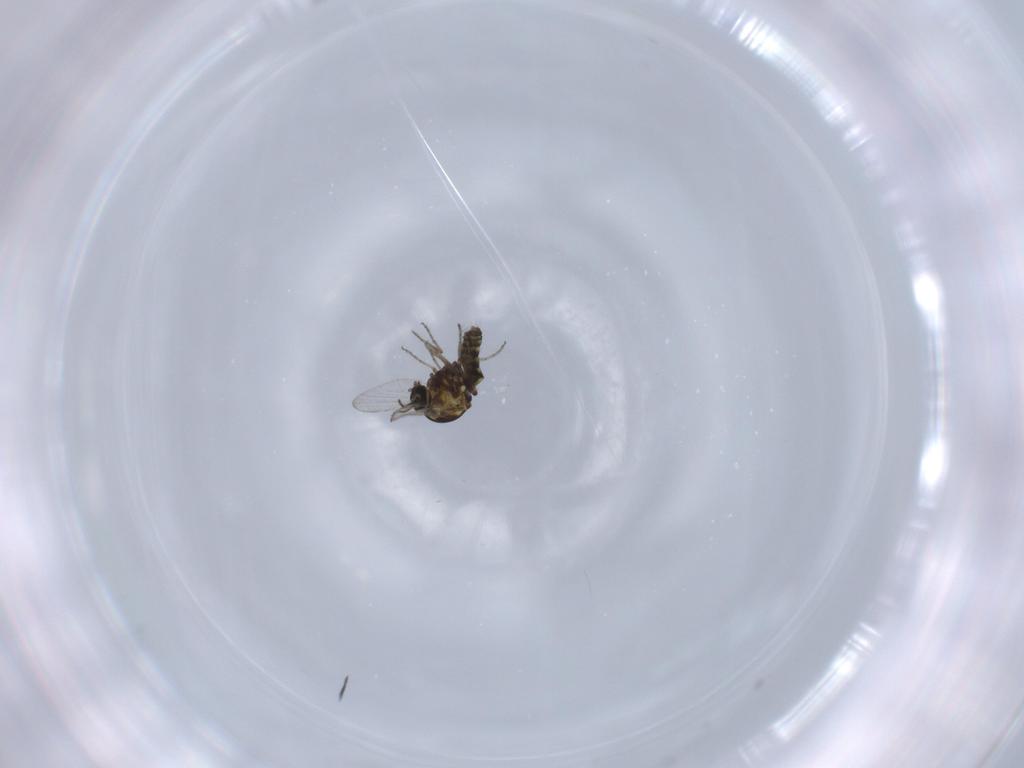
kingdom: Animalia
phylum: Arthropoda
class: Insecta
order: Diptera
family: Ceratopogonidae
